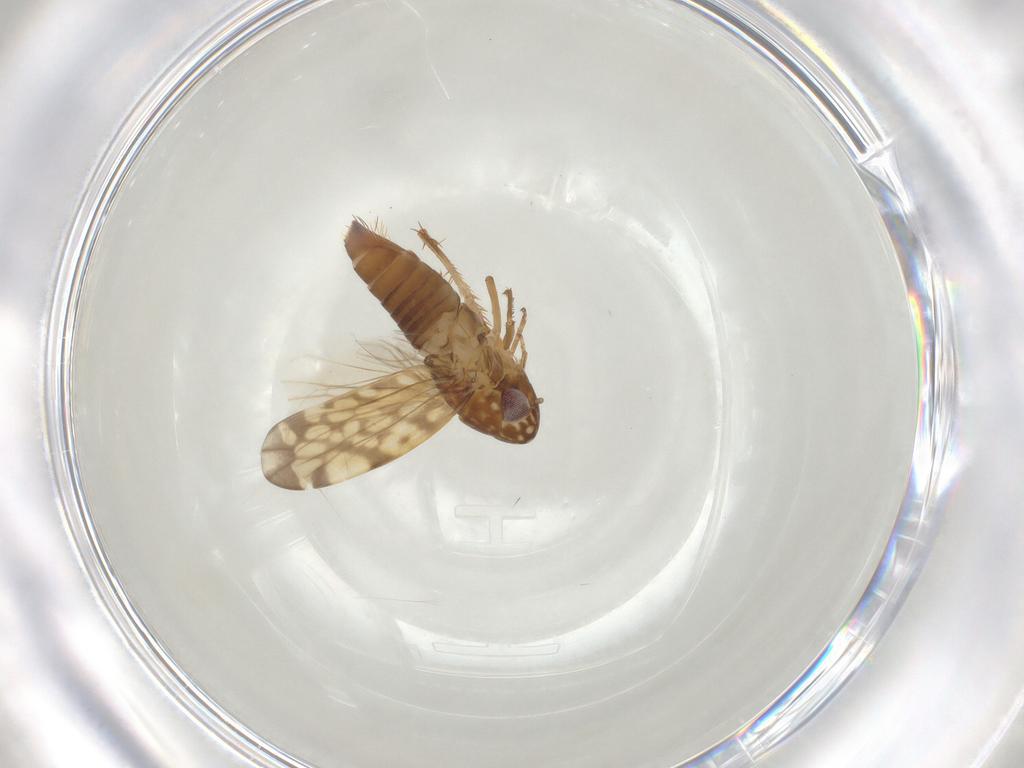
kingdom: Animalia
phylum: Arthropoda
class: Insecta
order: Hemiptera
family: Cicadellidae
